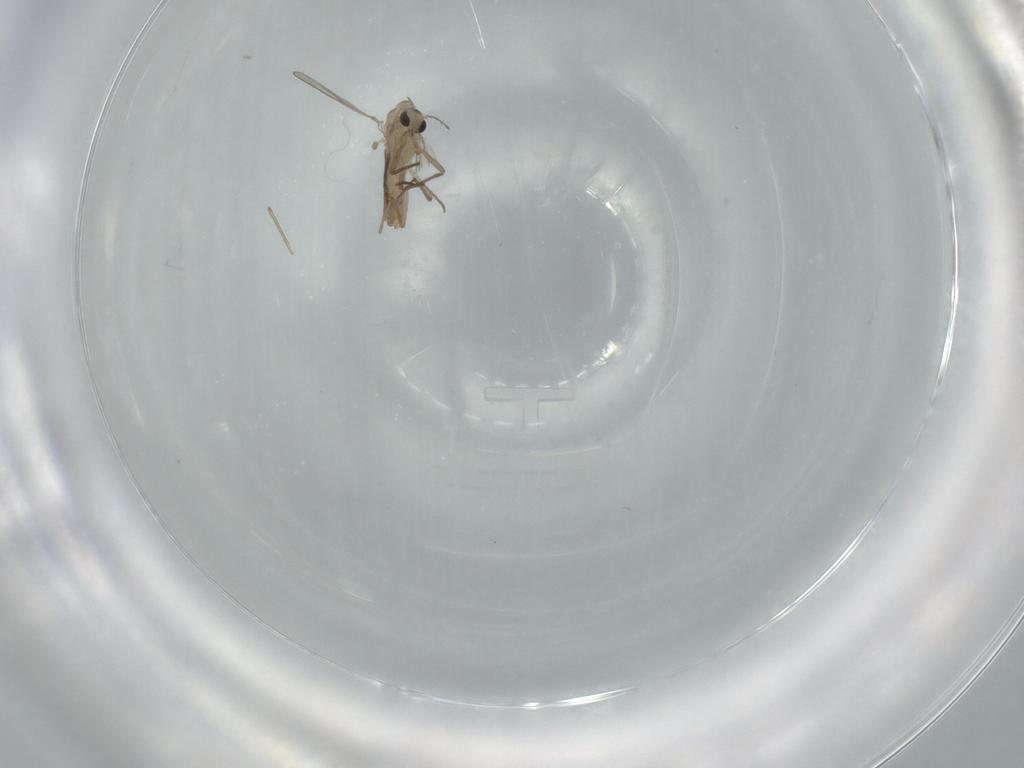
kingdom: Animalia
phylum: Arthropoda
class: Insecta
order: Diptera
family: Chironomidae
